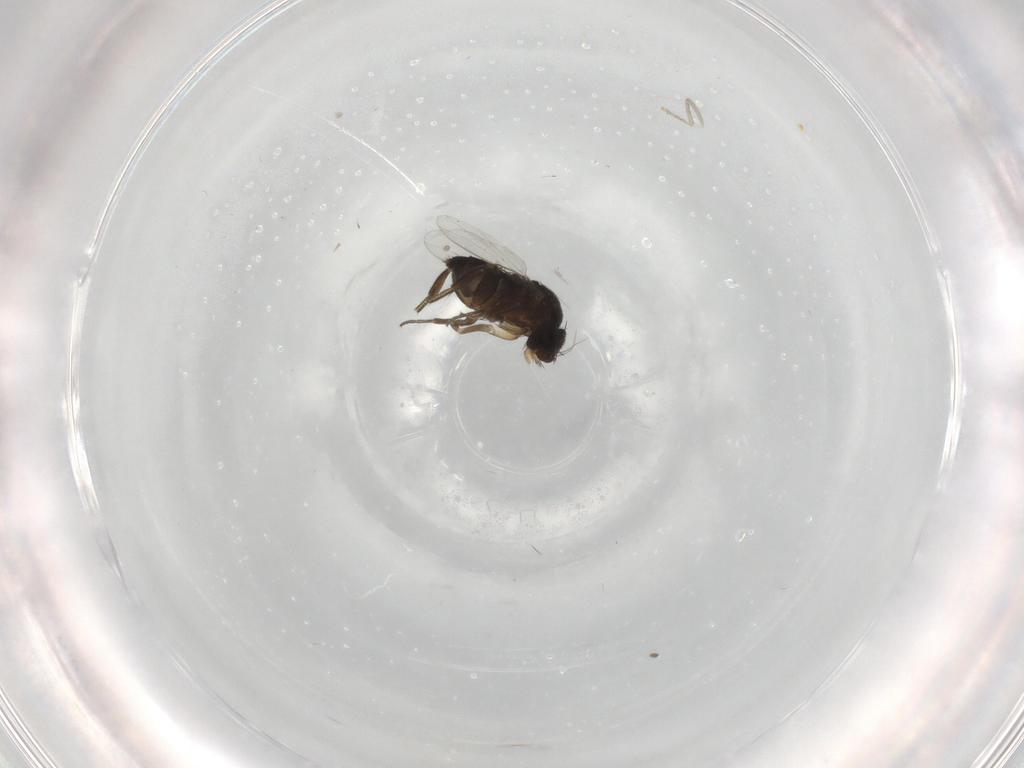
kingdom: Animalia
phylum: Arthropoda
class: Insecta
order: Diptera
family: Phoridae
